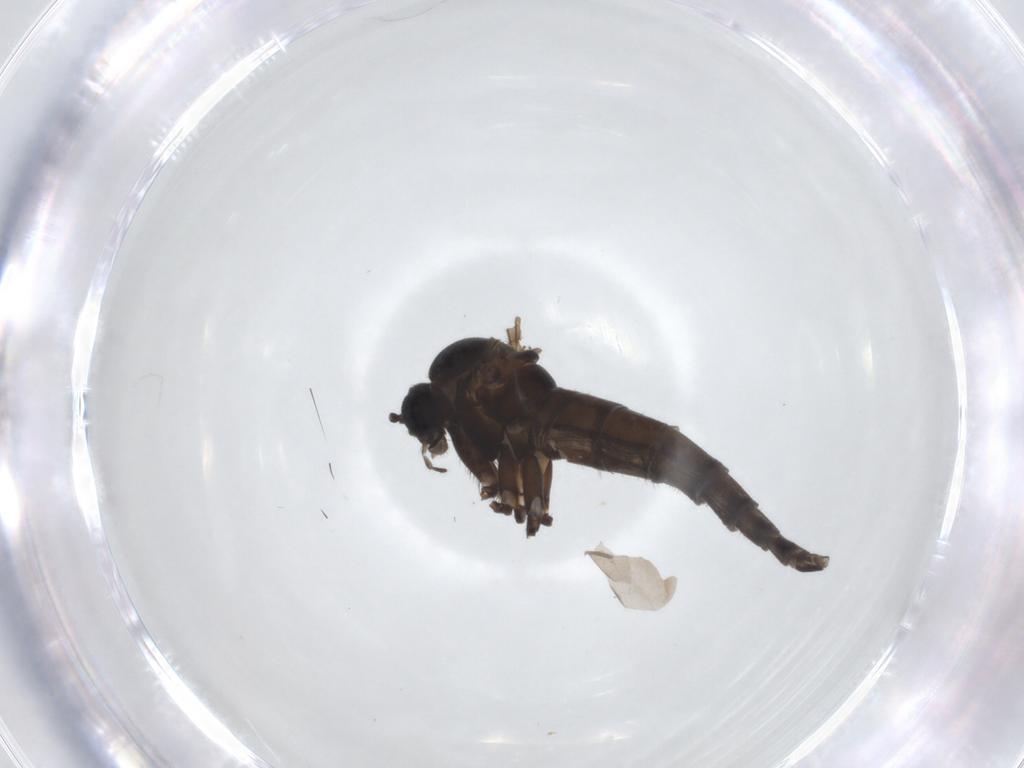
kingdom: Animalia
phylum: Arthropoda
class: Insecta
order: Diptera
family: Sciaridae
